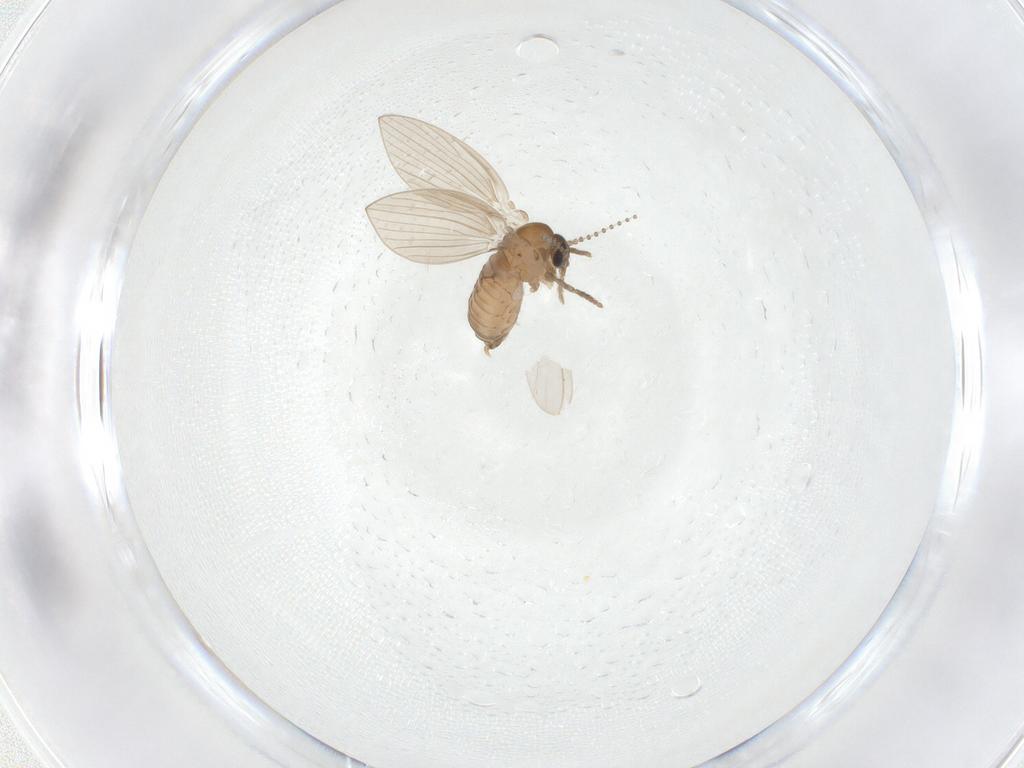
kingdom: Animalia
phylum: Arthropoda
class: Insecta
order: Diptera
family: Psychodidae
